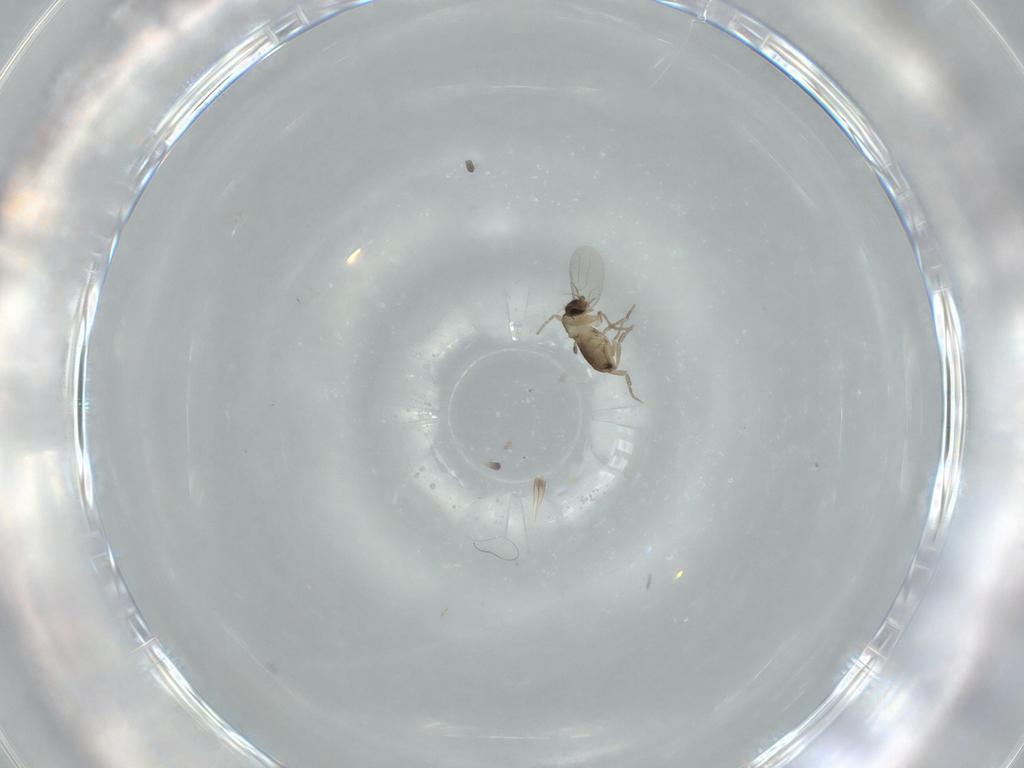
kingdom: Animalia
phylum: Arthropoda
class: Insecta
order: Diptera
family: Phoridae
